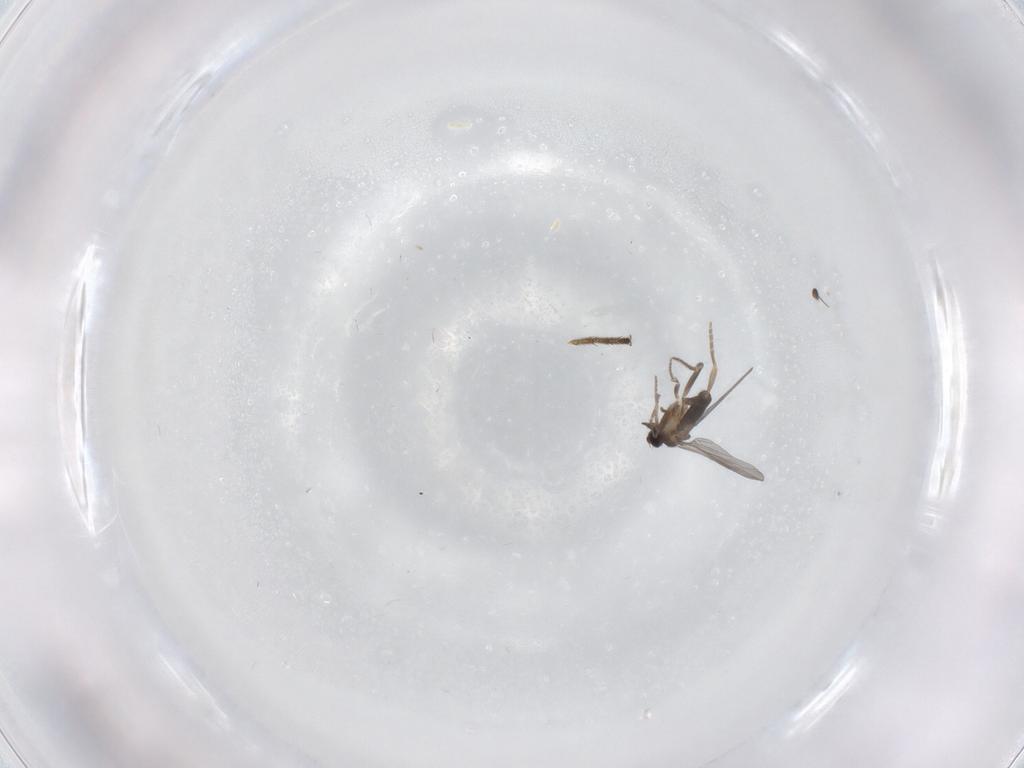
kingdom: Animalia
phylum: Arthropoda
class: Insecta
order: Diptera
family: Dolichopodidae
